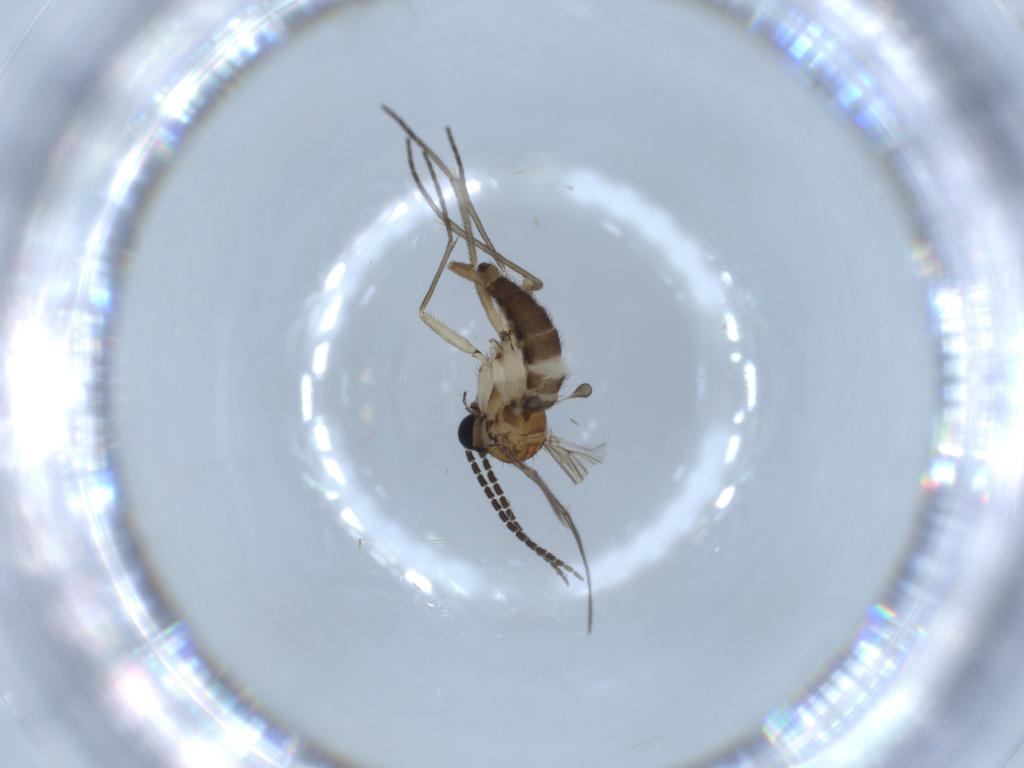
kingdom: Animalia
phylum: Arthropoda
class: Insecta
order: Diptera
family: Sciaridae
